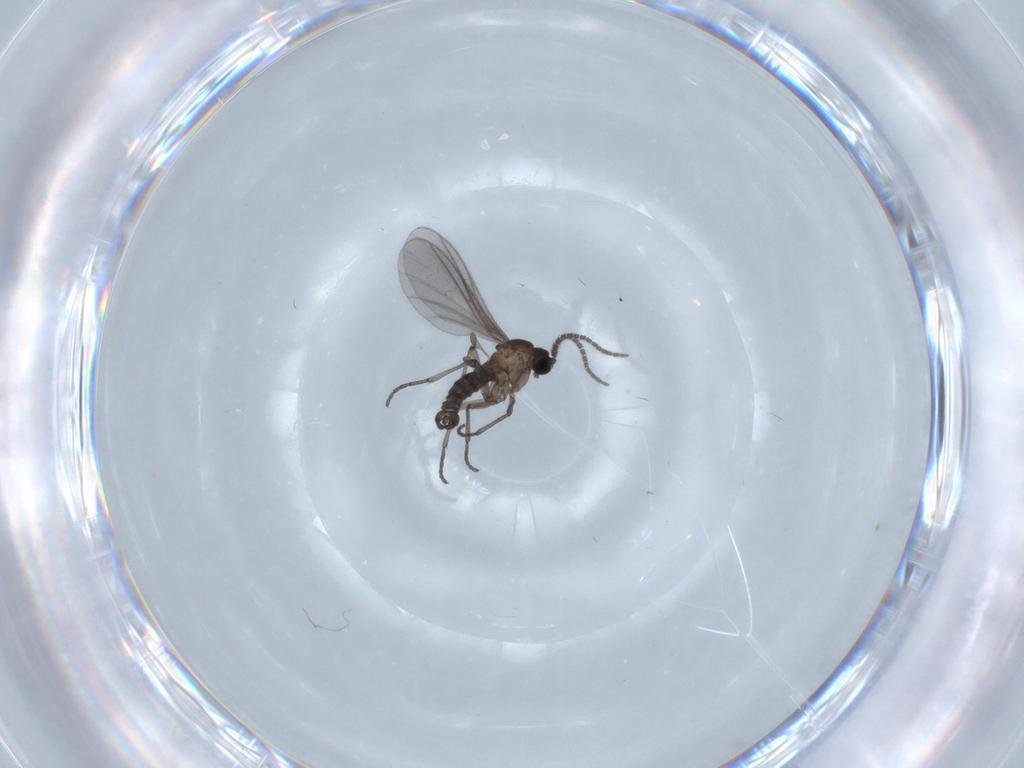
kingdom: Animalia
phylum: Arthropoda
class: Insecta
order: Diptera
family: Sciaridae
